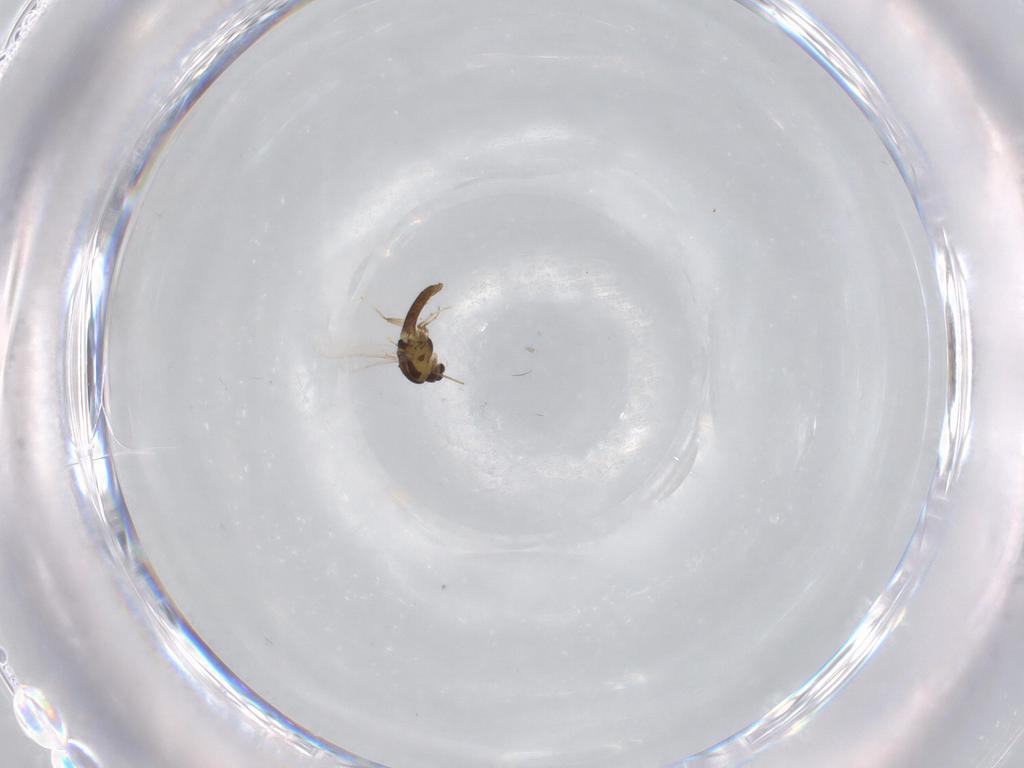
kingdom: Animalia
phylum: Arthropoda
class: Insecta
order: Diptera
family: Chironomidae
